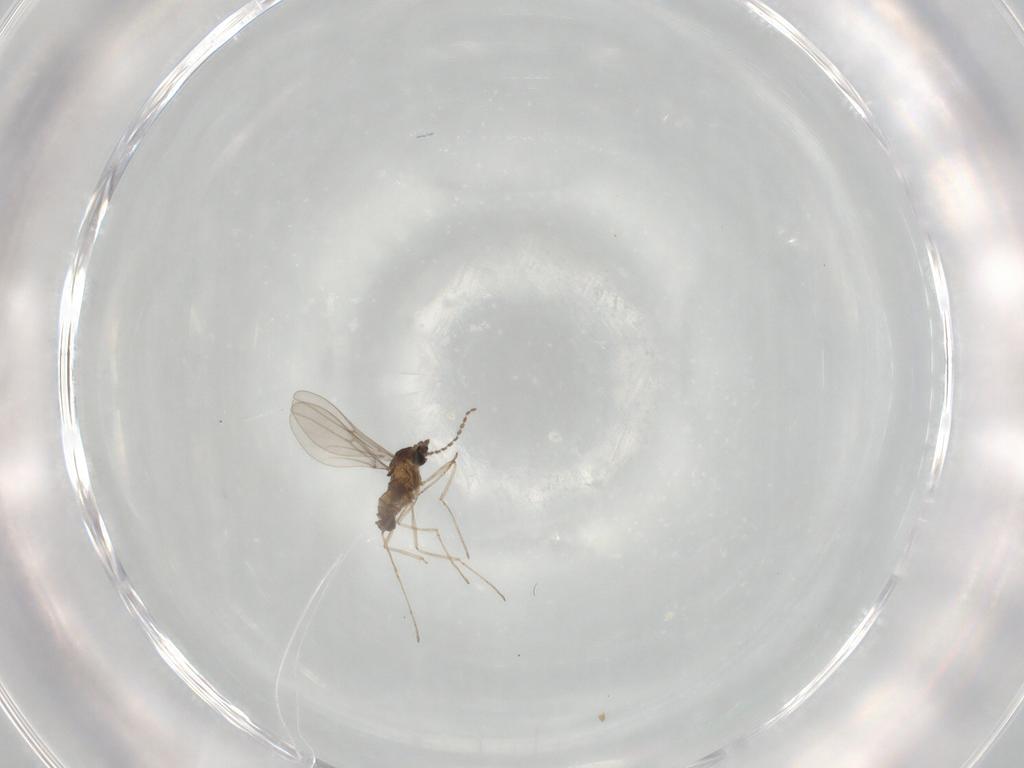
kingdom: Animalia
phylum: Arthropoda
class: Insecta
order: Diptera
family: Cecidomyiidae
